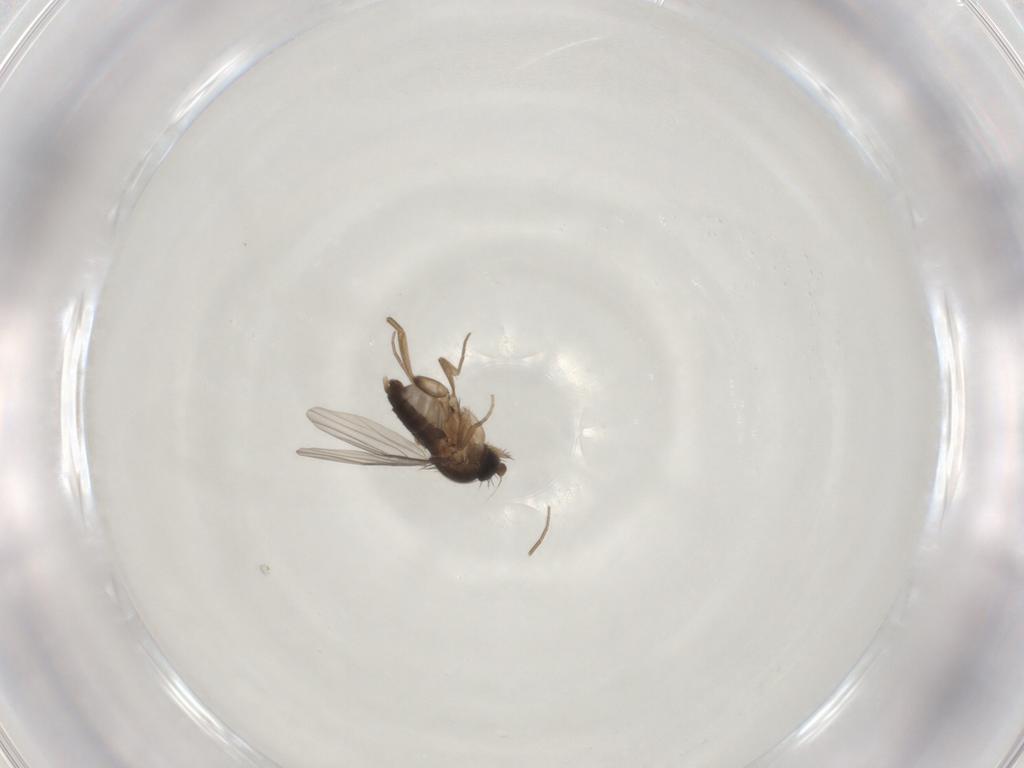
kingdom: Animalia
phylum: Arthropoda
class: Insecta
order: Diptera
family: Phoridae
